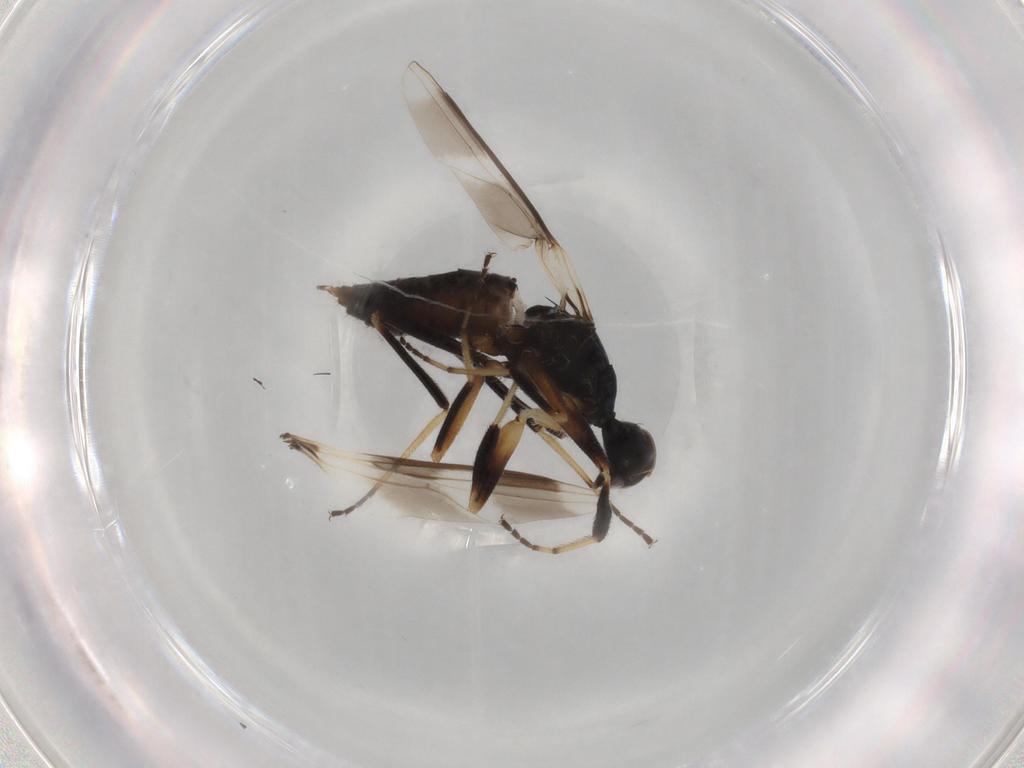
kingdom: Animalia
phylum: Arthropoda
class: Insecta
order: Diptera
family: Hybotidae
